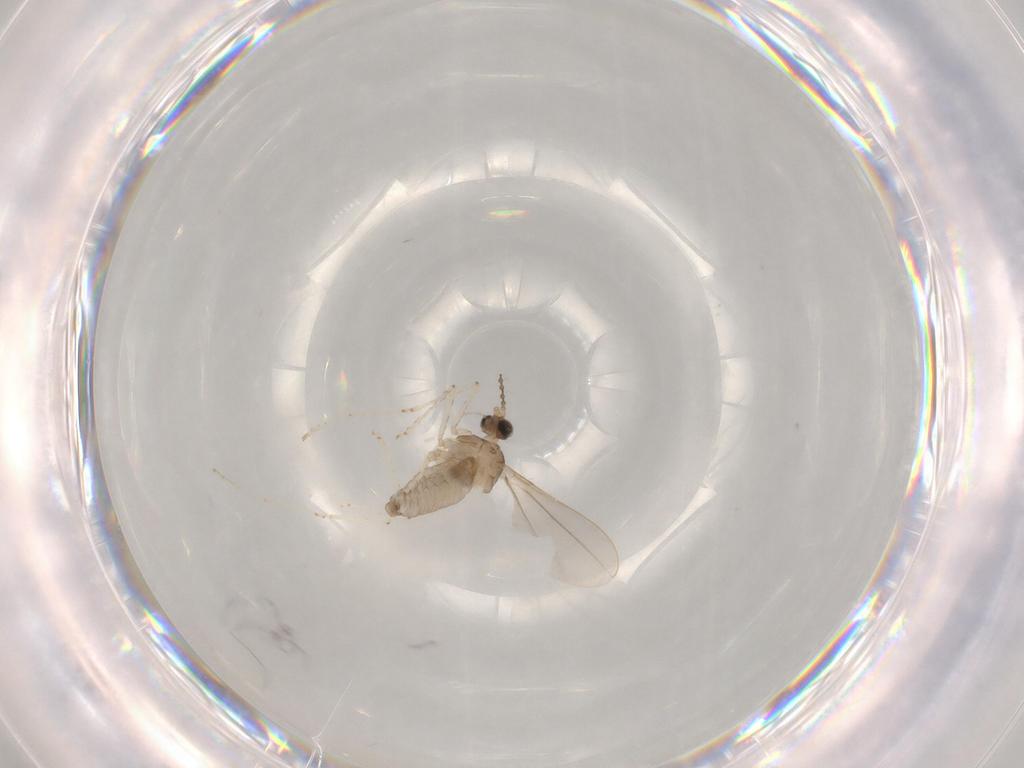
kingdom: Animalia
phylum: Arthropoda
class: Insecta
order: Diptera
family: Cecidomyiidae
